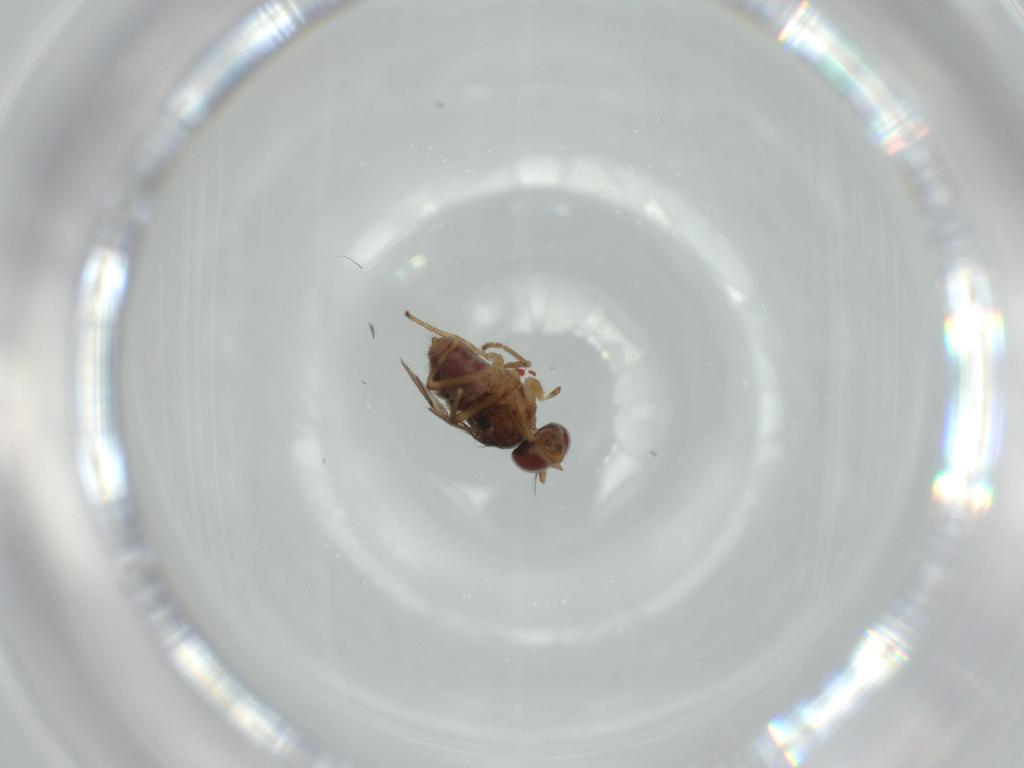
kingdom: Animalia
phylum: Arthropoda
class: Insecta
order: Diptera
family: Ephydridae
